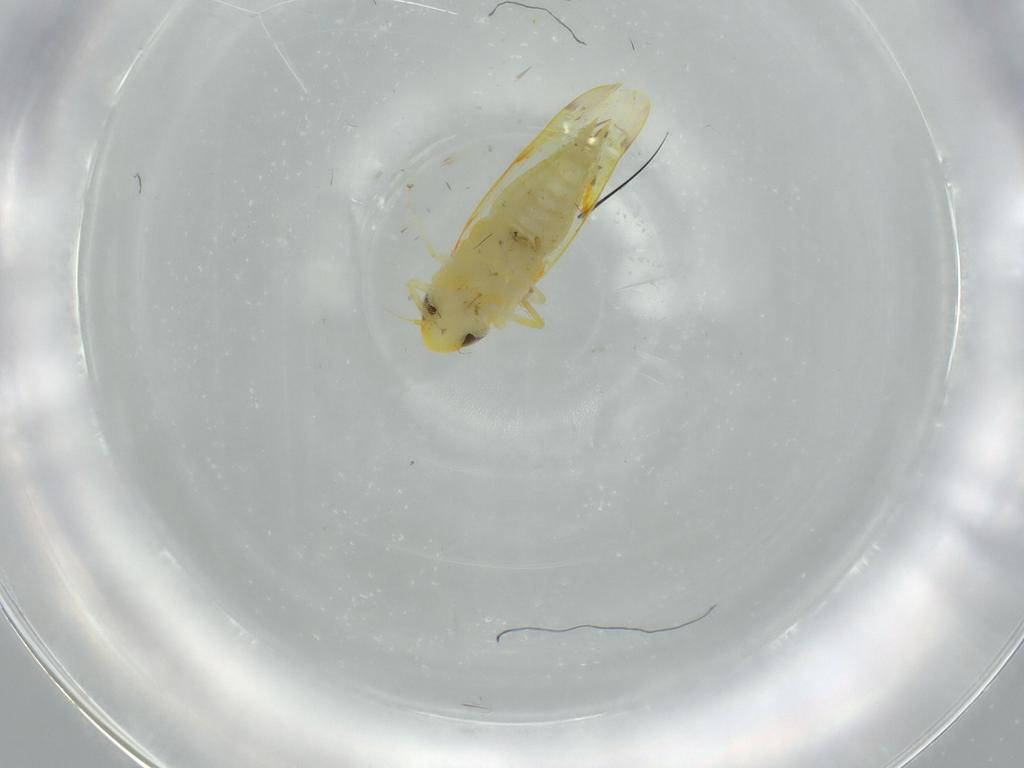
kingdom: Animalia
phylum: Arthropoda
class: Insecta
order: Hemiptera
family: Cicadellidae
